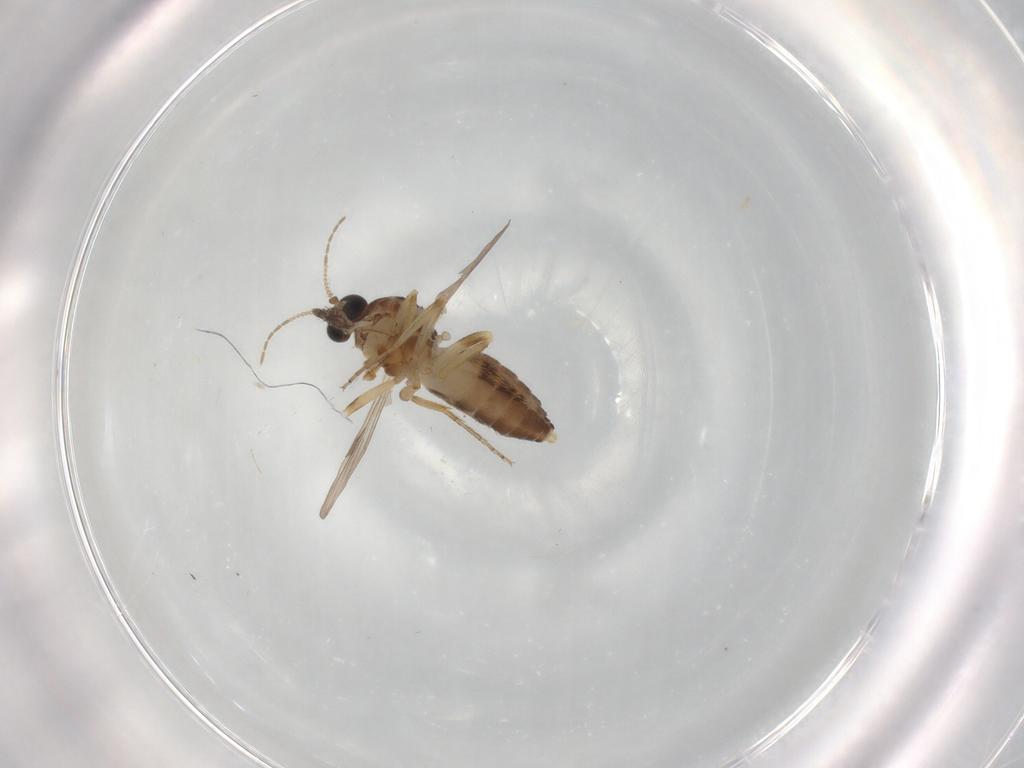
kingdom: Animalia
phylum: Arthropoda
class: Insecta
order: Diptera
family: Ceratopogonidae
